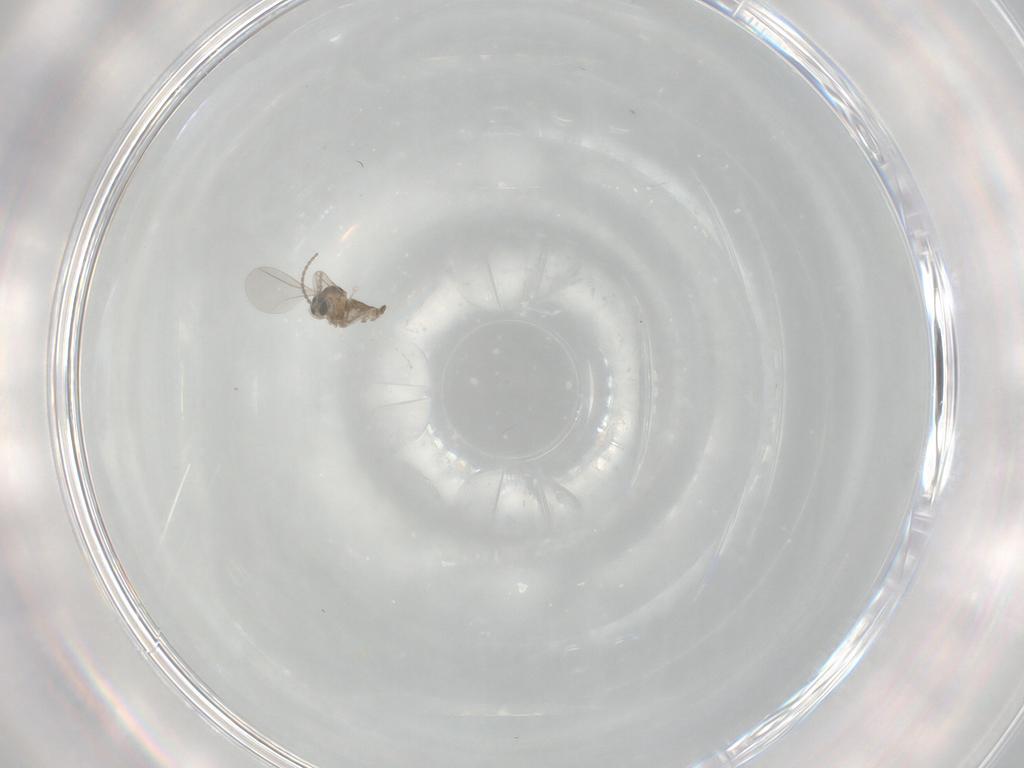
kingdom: Animalia
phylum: Arthropoda
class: Insecta
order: Diptera
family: Cecidomyiidae
